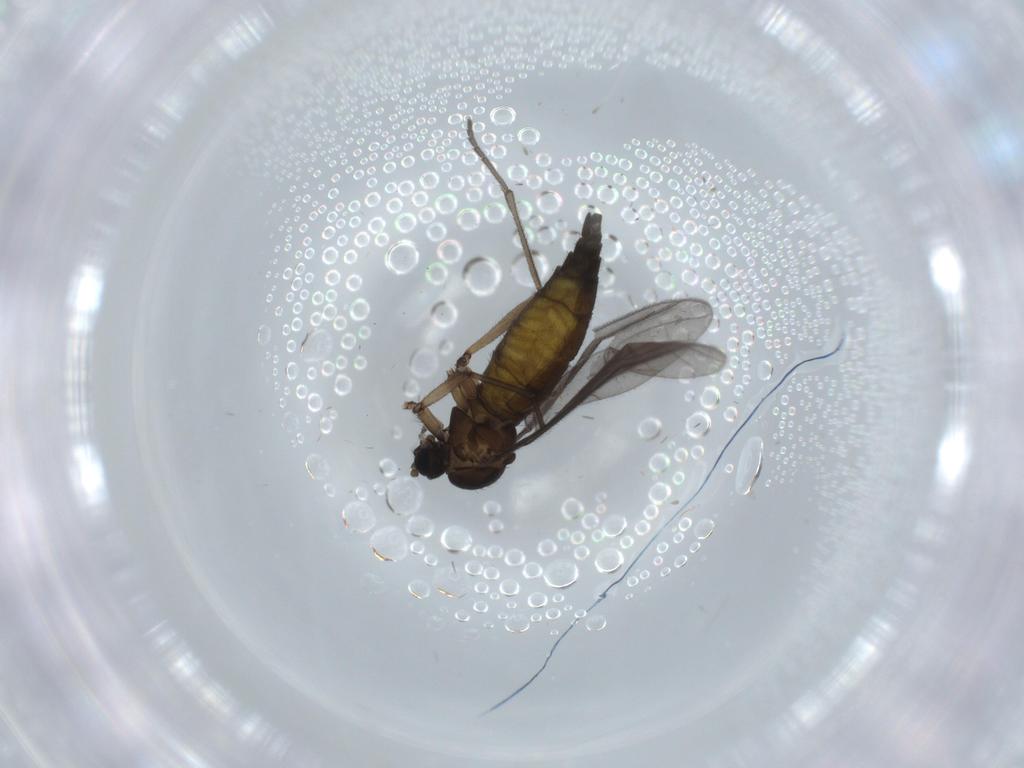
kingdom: Animalia
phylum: Arthropoda
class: Insecta
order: Diptera
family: Sciaridae
